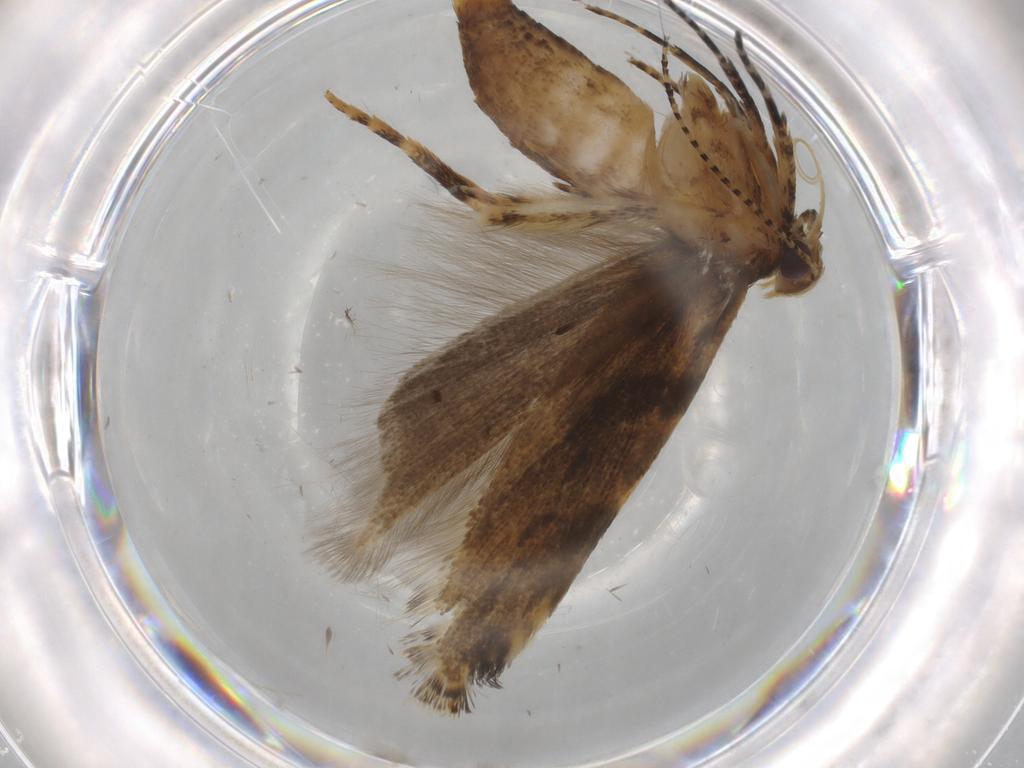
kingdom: Animalia
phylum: Arthropoda
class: Insecta
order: Lepidoptera
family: Gelechiidae
